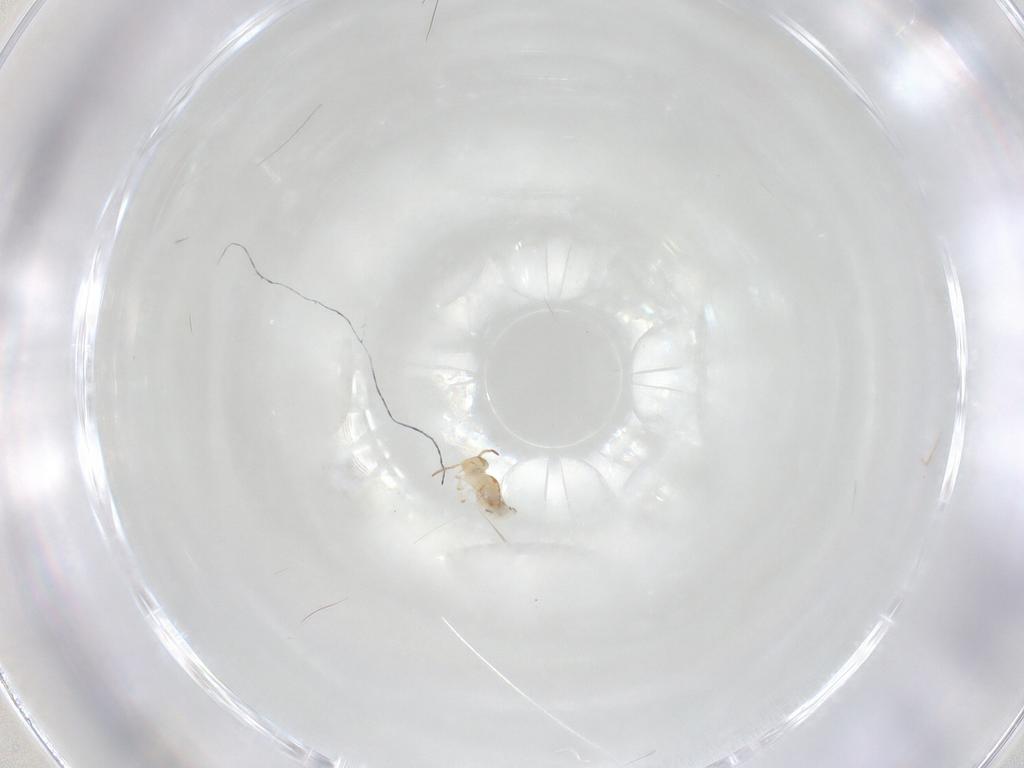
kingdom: Animalia
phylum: Arthropoda
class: Collembola
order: Symphypleona
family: Bourletiellidae
